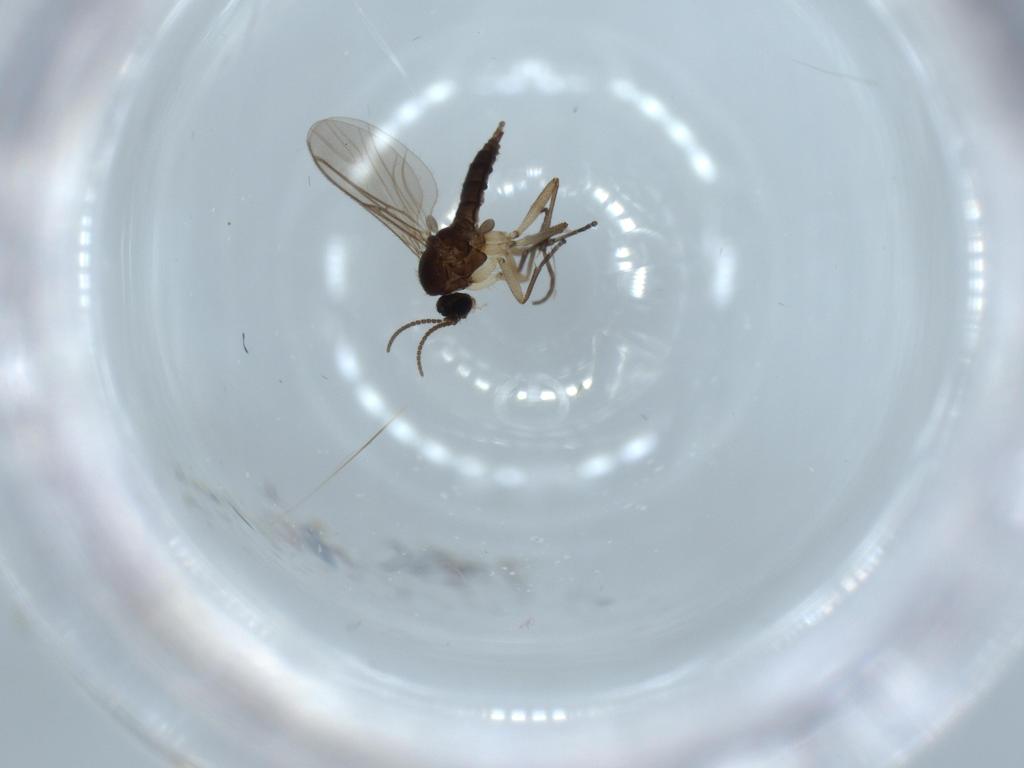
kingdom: Animalia
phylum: Arthropoda
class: Insecta
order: Diptera
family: Sciaridae
